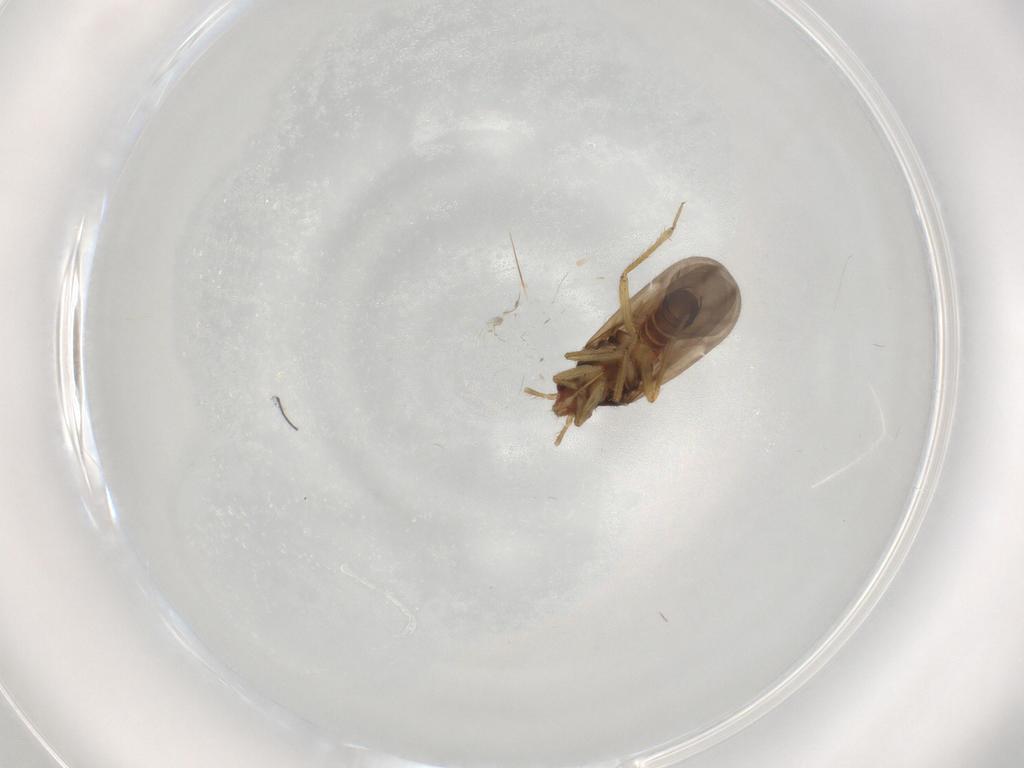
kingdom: Animalia
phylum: Arthropoda
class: Insecta
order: Hemiptera
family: Ceratocombidae
